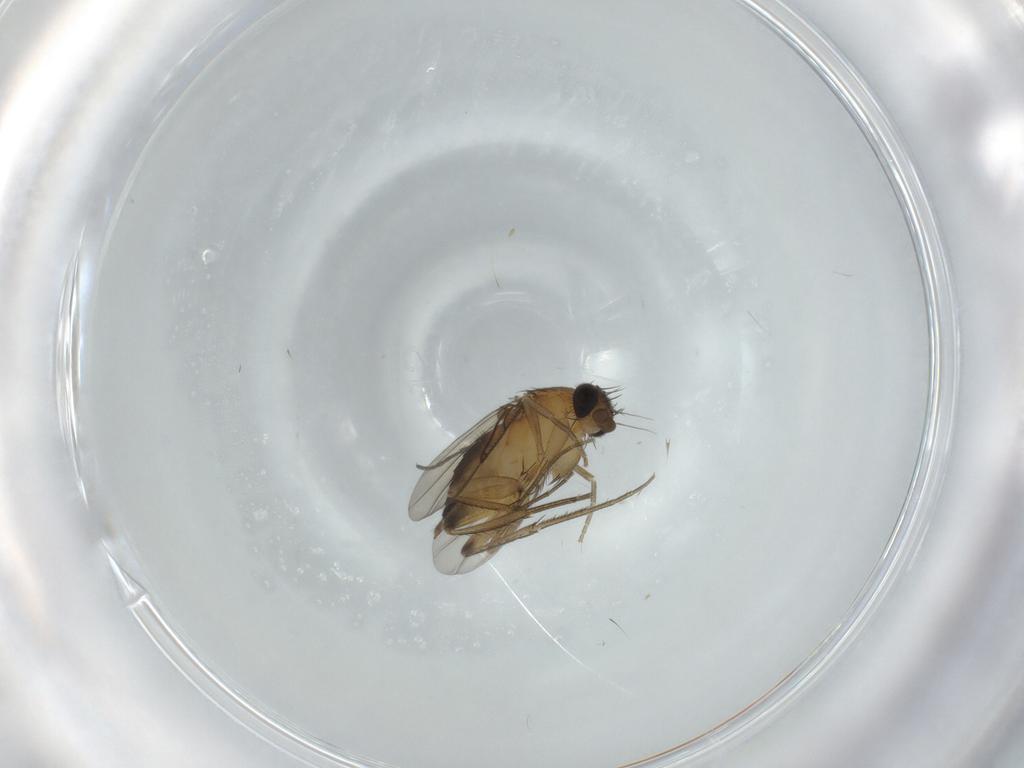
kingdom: Animalia
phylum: Arthropoda
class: Insecta
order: Diptera
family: Sciaridae
